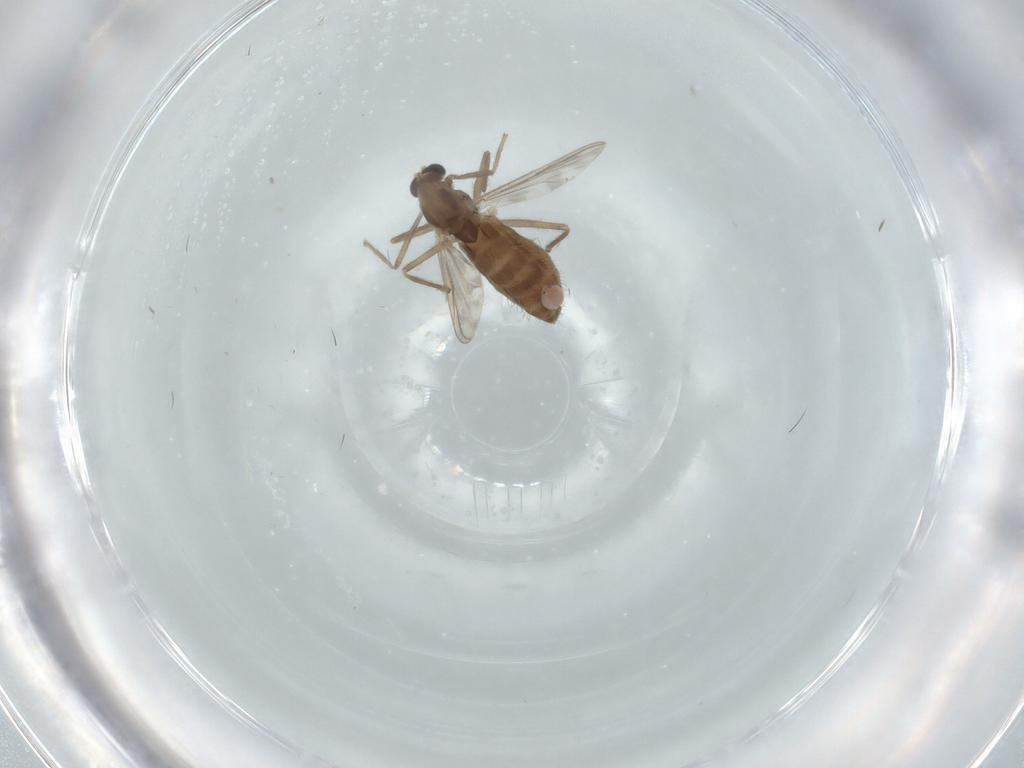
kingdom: Animalia
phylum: Arthropoda
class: Insecta
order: Diptera
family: Chironomidae
